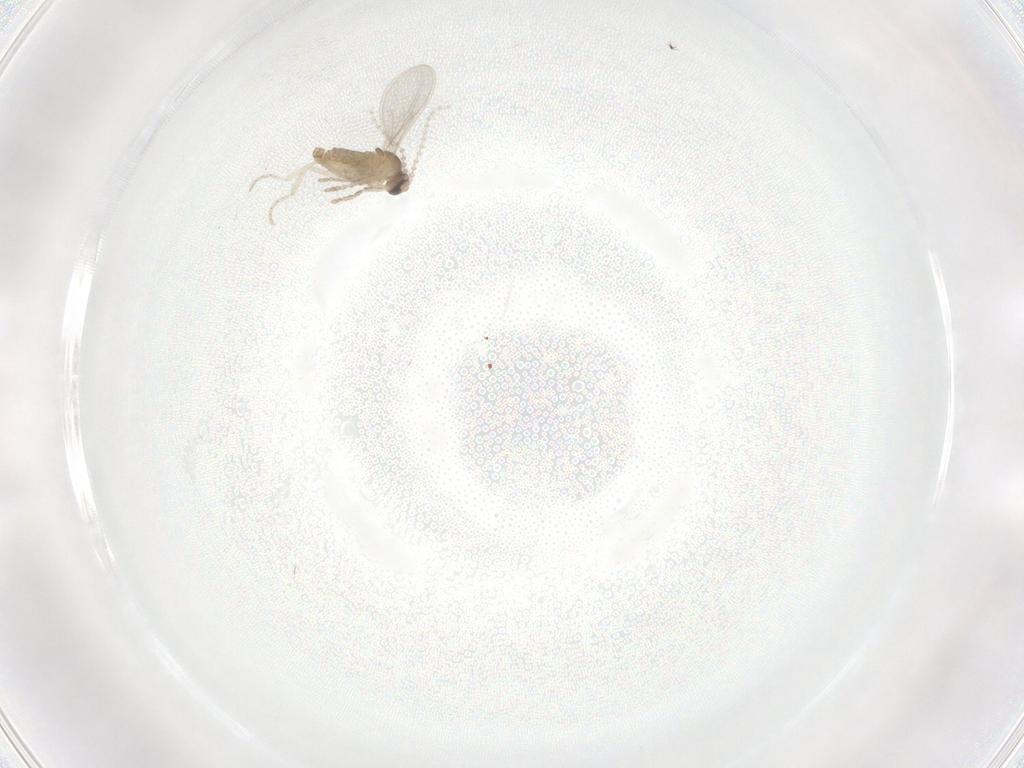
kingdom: Animalia
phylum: Arthropoda
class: Insecta
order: Diptera
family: Cecidomyiidae
